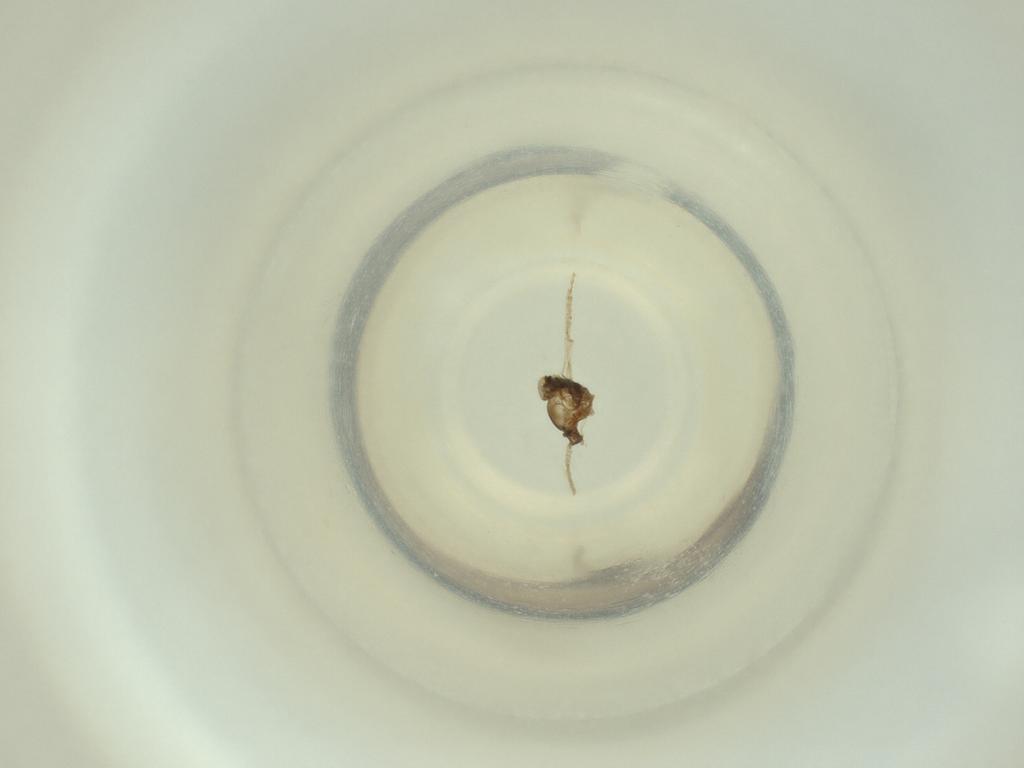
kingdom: Animalia
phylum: Arthropoda
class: Insecta
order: Diptera
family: Cecidomyiidae
